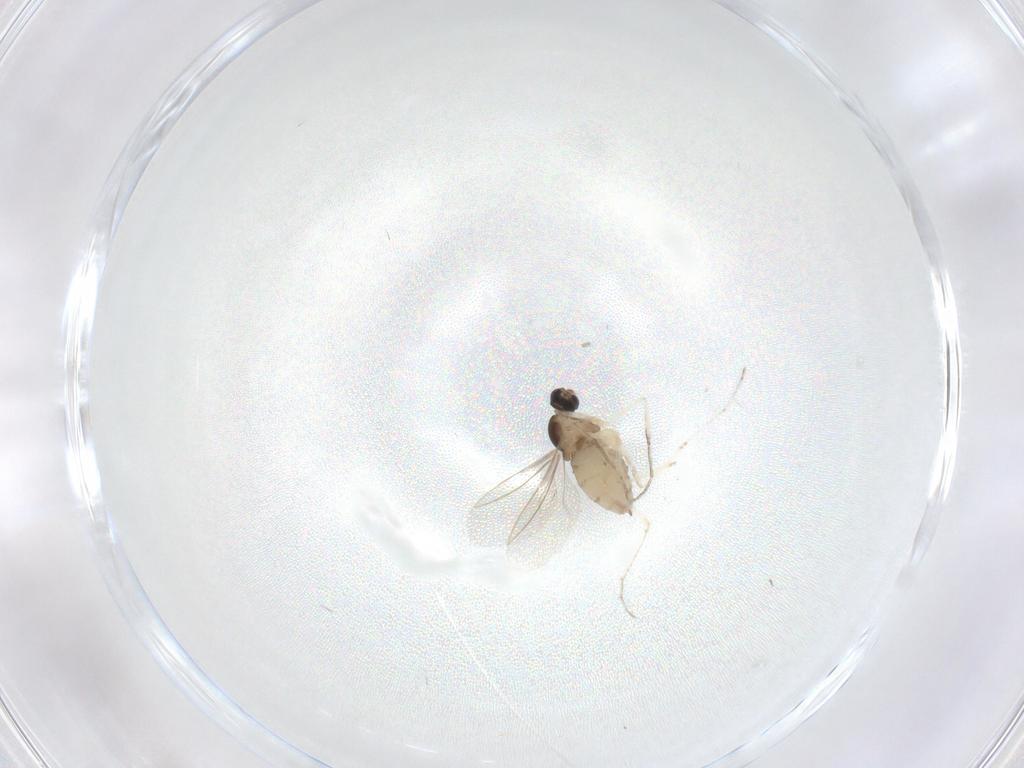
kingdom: Animalia
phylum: Arthropoda
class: Insecta
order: Diptera
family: Cecidomyiidae
